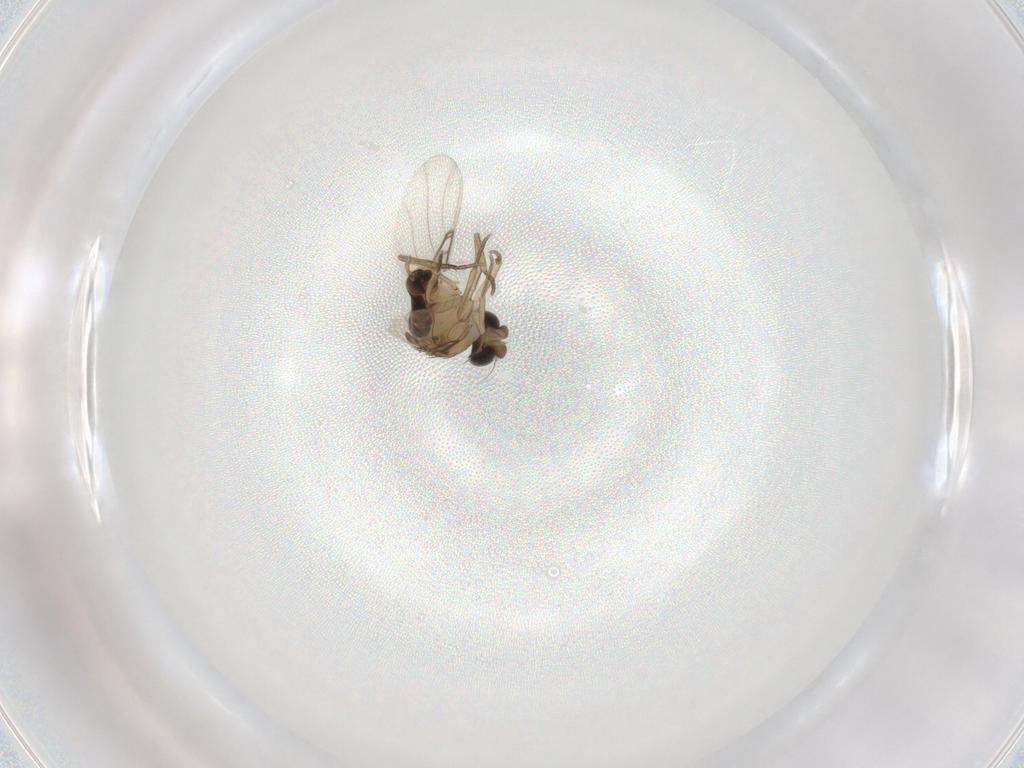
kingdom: Animalia
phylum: Arthropoda
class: Insecta
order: Diptera
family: Phoridae
